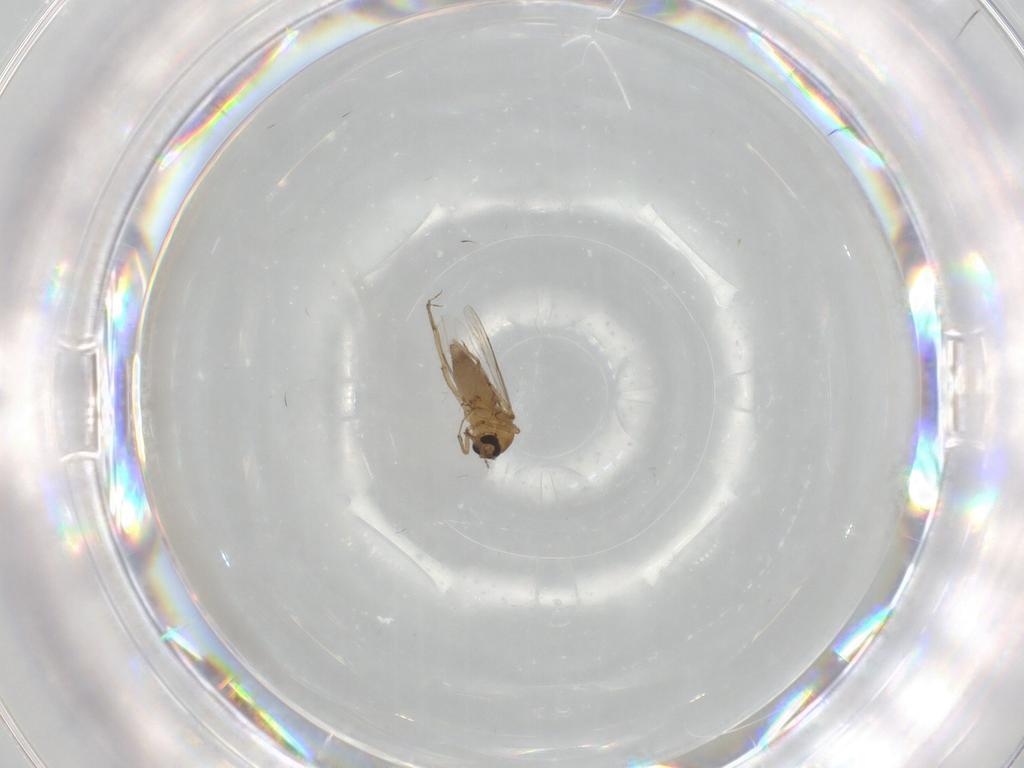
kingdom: Animalia
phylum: Arthropoda
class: Insecta
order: Diptera
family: Ceratopogonidae
